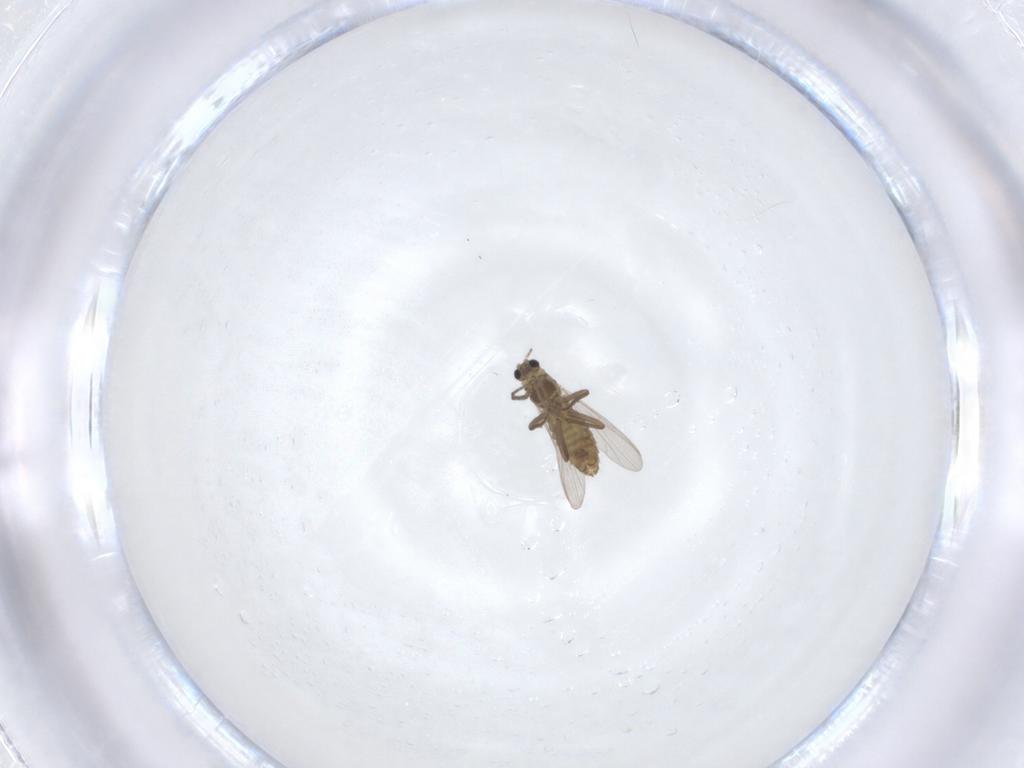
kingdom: Animalia
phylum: Arthropoda
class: Insecta
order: Diptera
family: Chironomidae
